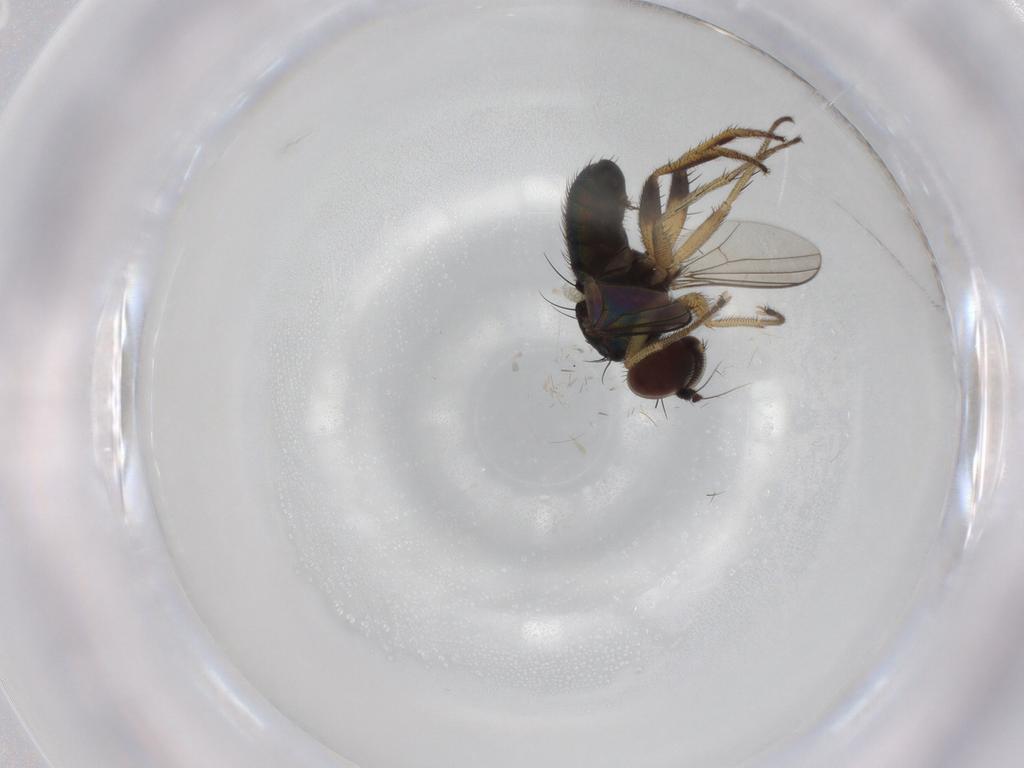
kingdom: Animalia
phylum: Arthropoda
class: Insecta
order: Diptera
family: Dolichopodidae
